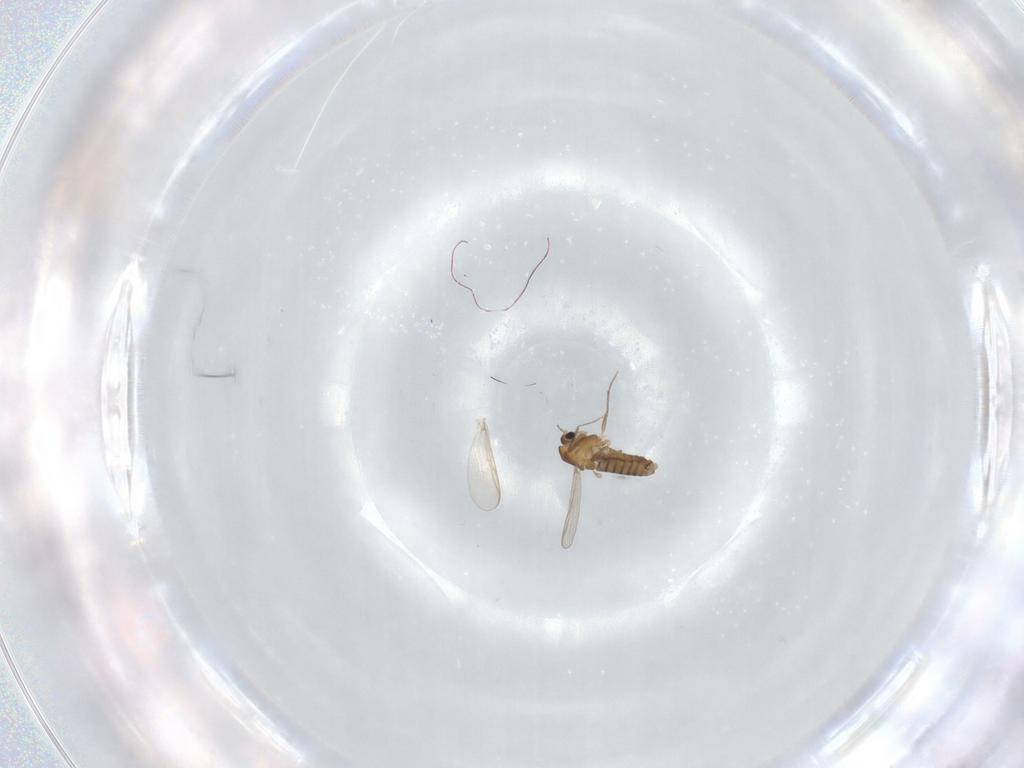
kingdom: Animalia
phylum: Arthropoda
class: Insecta
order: Diptera
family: Chironomidae
